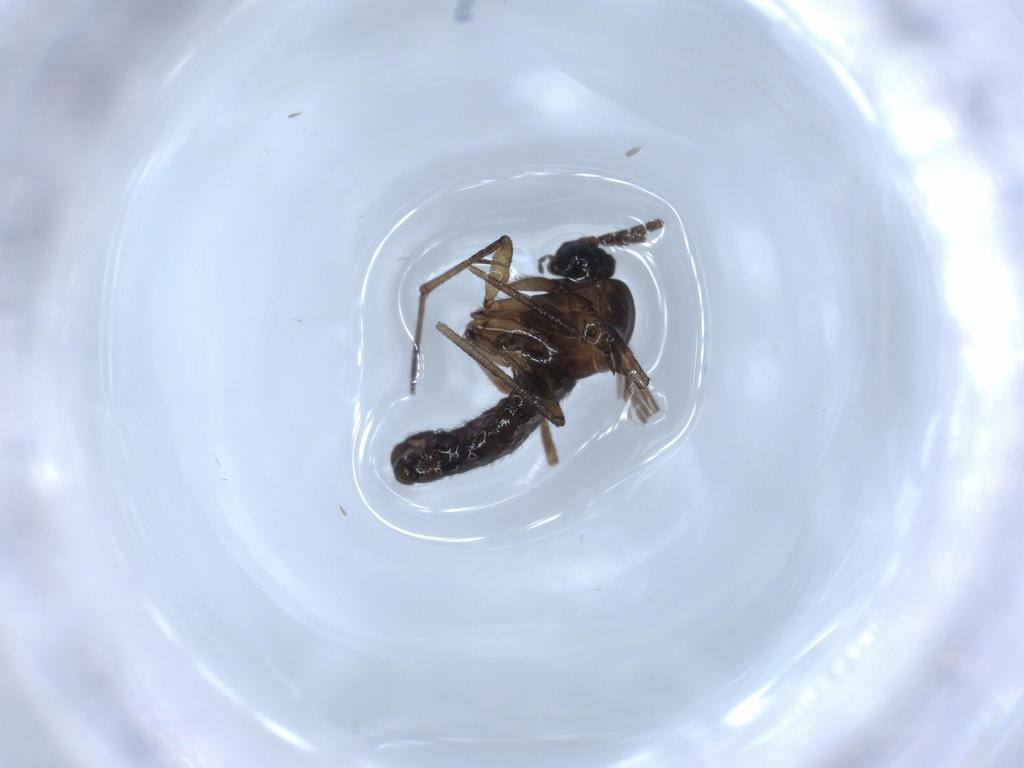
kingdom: Animalia
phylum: Arthropoda
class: Insecta
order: Diptera
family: Sciaridae
